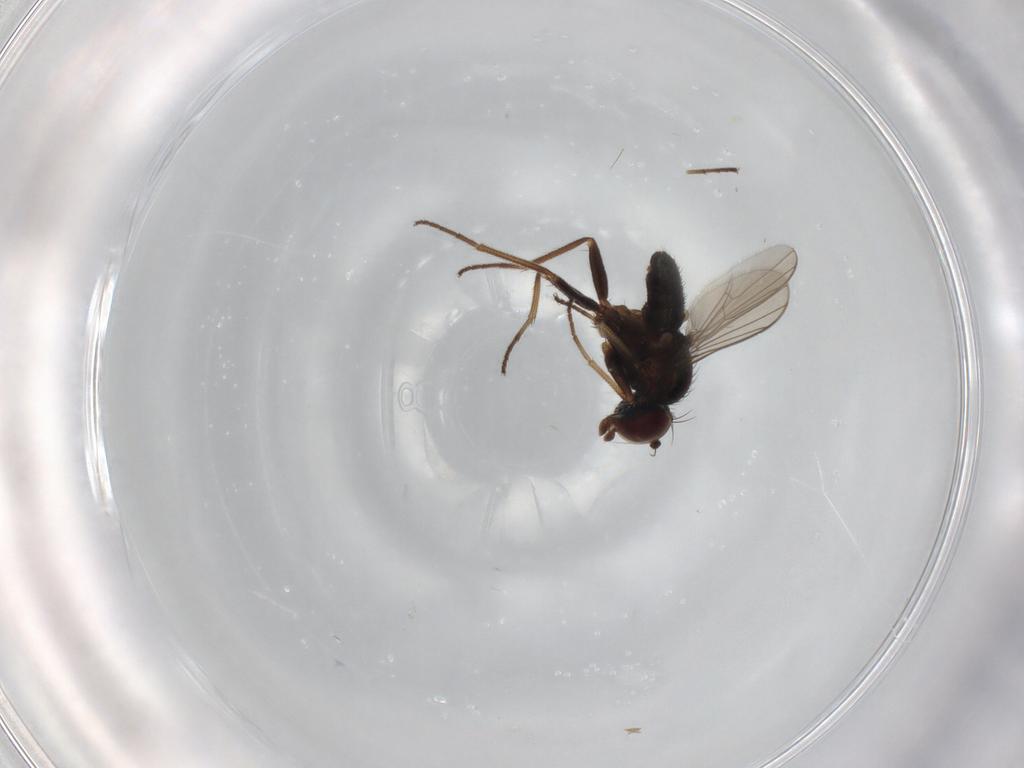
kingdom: Animalia
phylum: Arthropoda
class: Insecta
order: Diptera
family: Dolichopodidae
